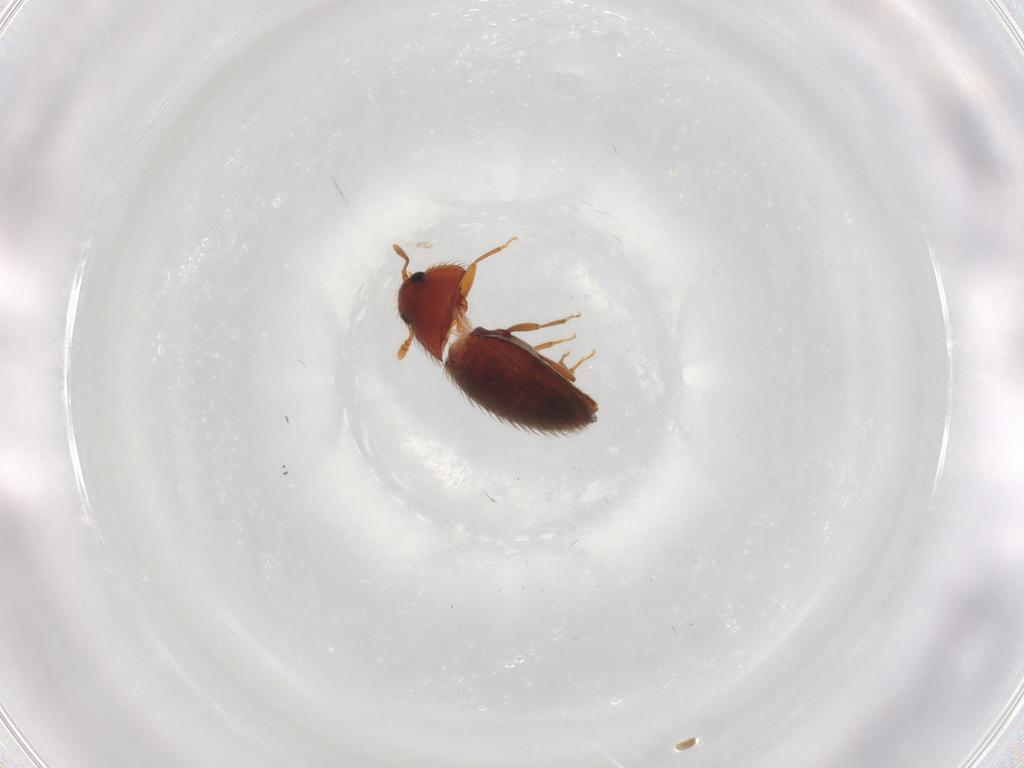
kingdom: Animalia
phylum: Arthropoda
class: Insecta
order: Coleoptera
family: Biphyllidae
